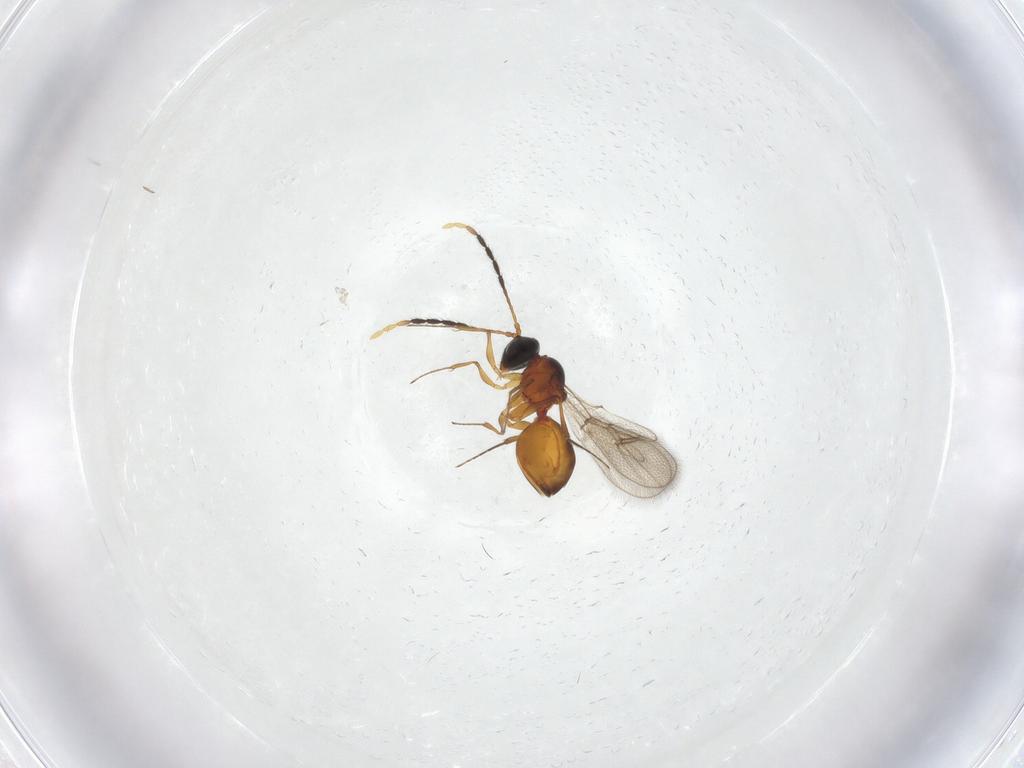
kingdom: Animalia
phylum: Arthropoda
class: Insecta
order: Hymenoptera
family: Figitidae
